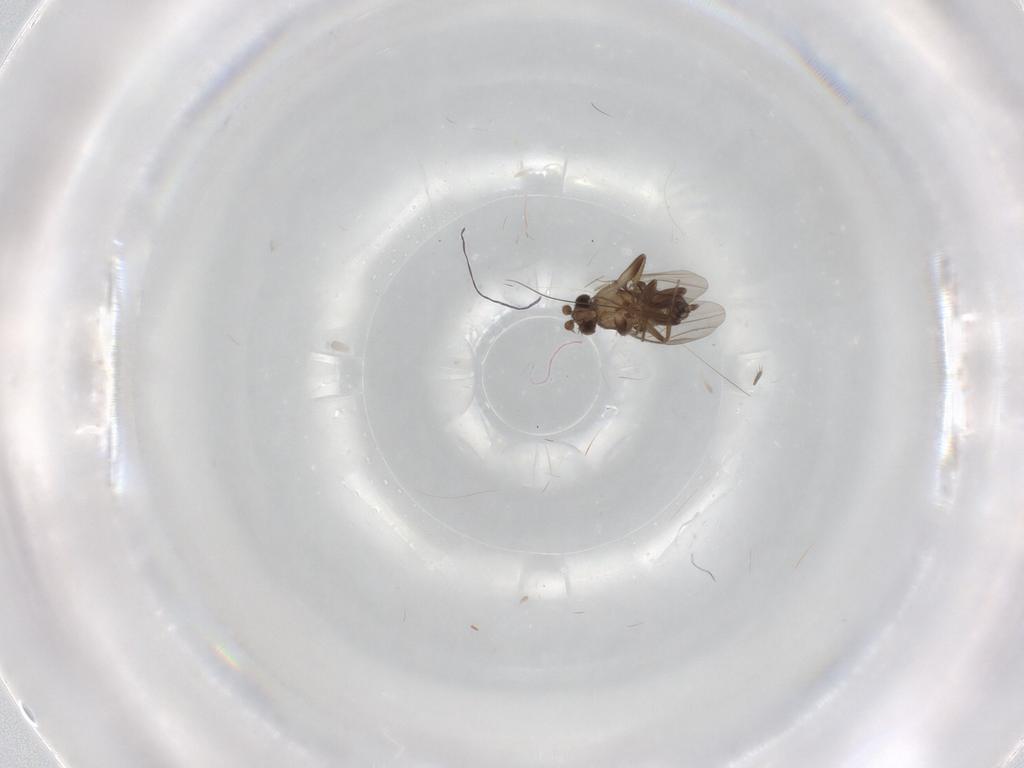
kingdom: Animalia
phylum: Arthropoda
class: Insecta
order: Diptera
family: Phoridae
